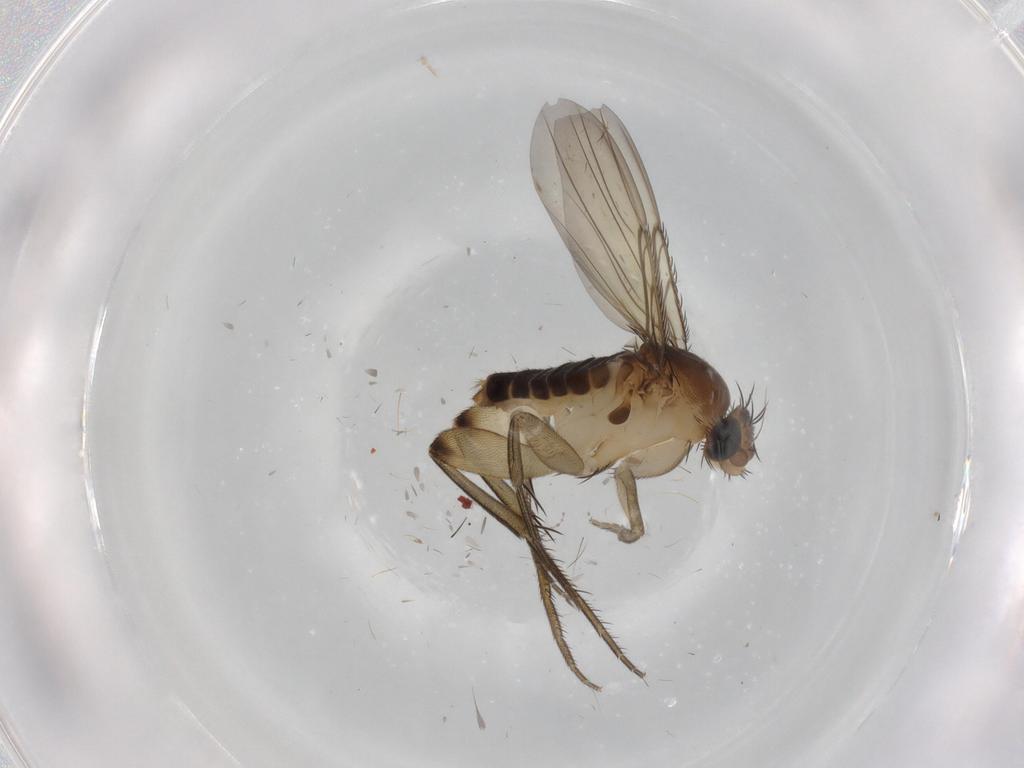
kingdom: Animalia
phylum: Arthropoda
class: Insecta
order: Diptera
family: Phoridae
